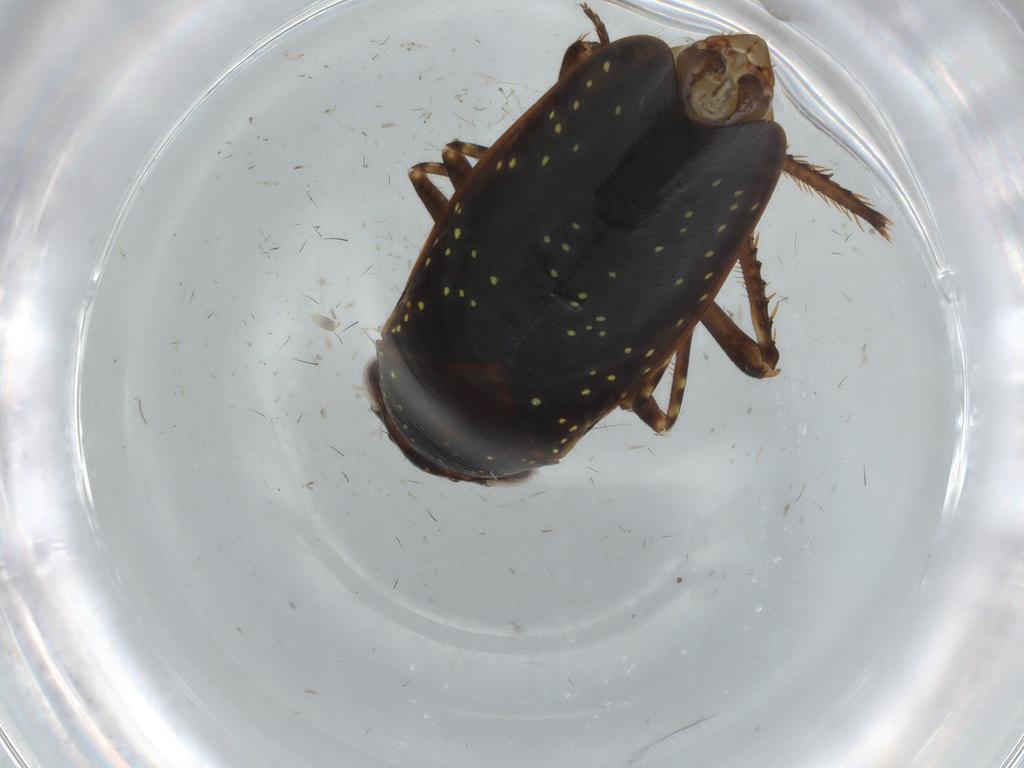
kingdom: Animalia
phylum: Arthropoda
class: Insecta
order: Hemiptera
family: Cicadellidae
